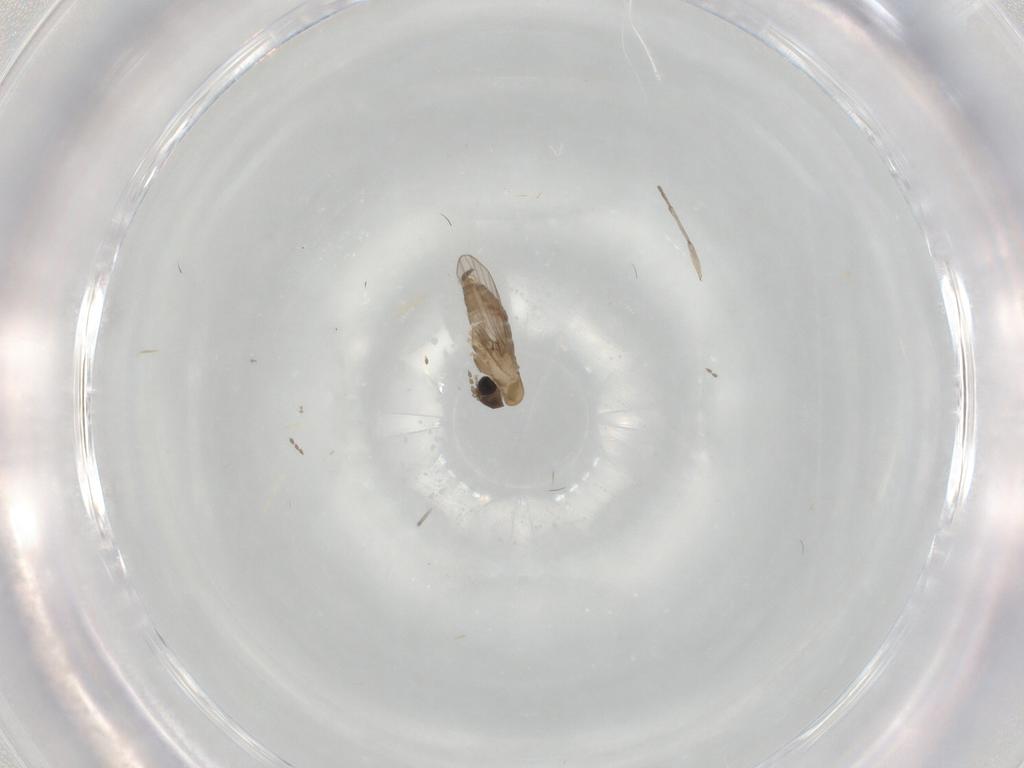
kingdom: Animalia
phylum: Arthropoda
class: Insecta
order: Diptera
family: Sciaridae
